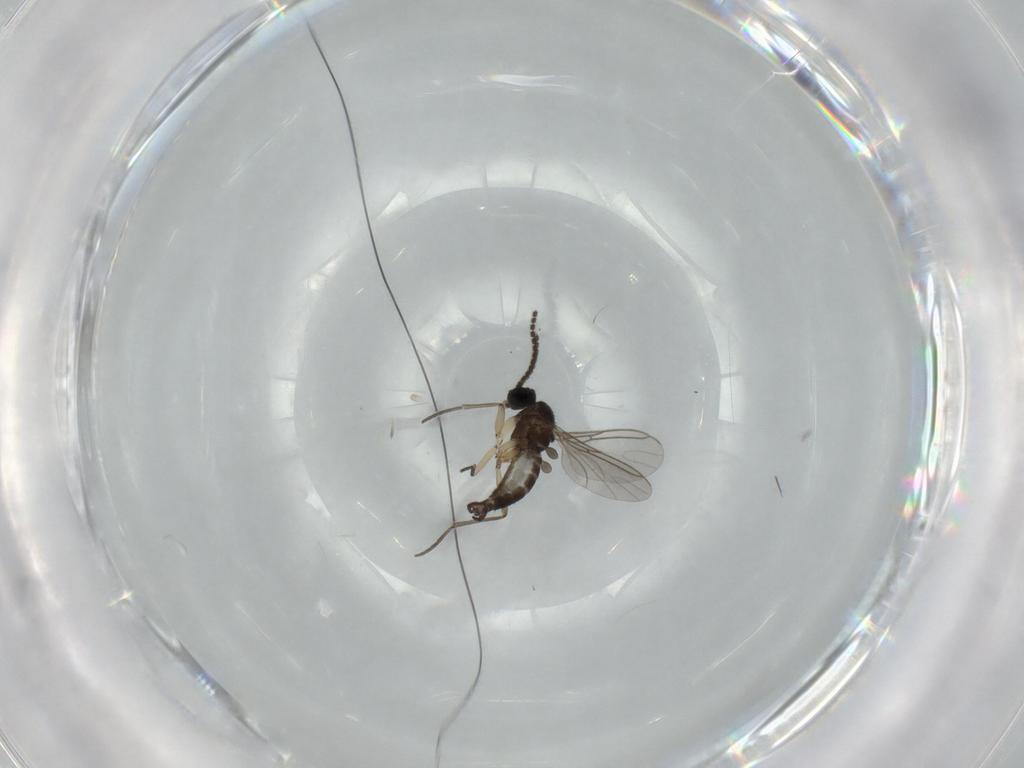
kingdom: Animalia
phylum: Arthropoda
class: Insecta
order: Diptera
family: Sciaridae
